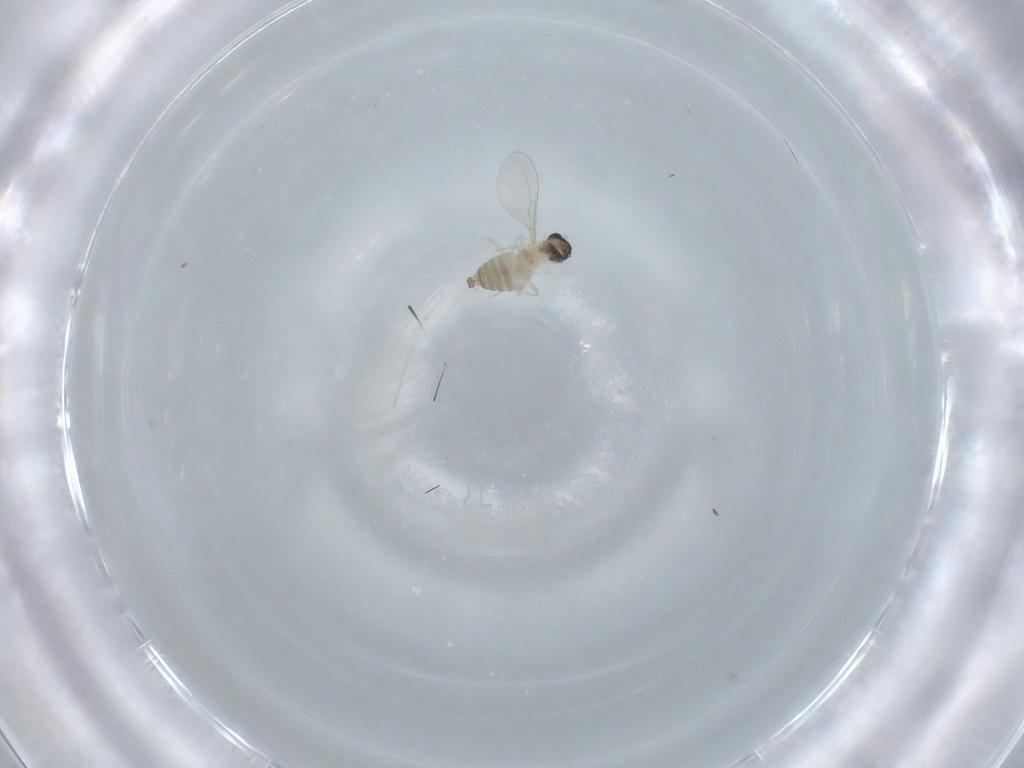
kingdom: Animalia
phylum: Arthropoda
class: Insecta
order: Diptera
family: Cecidomyiidae
